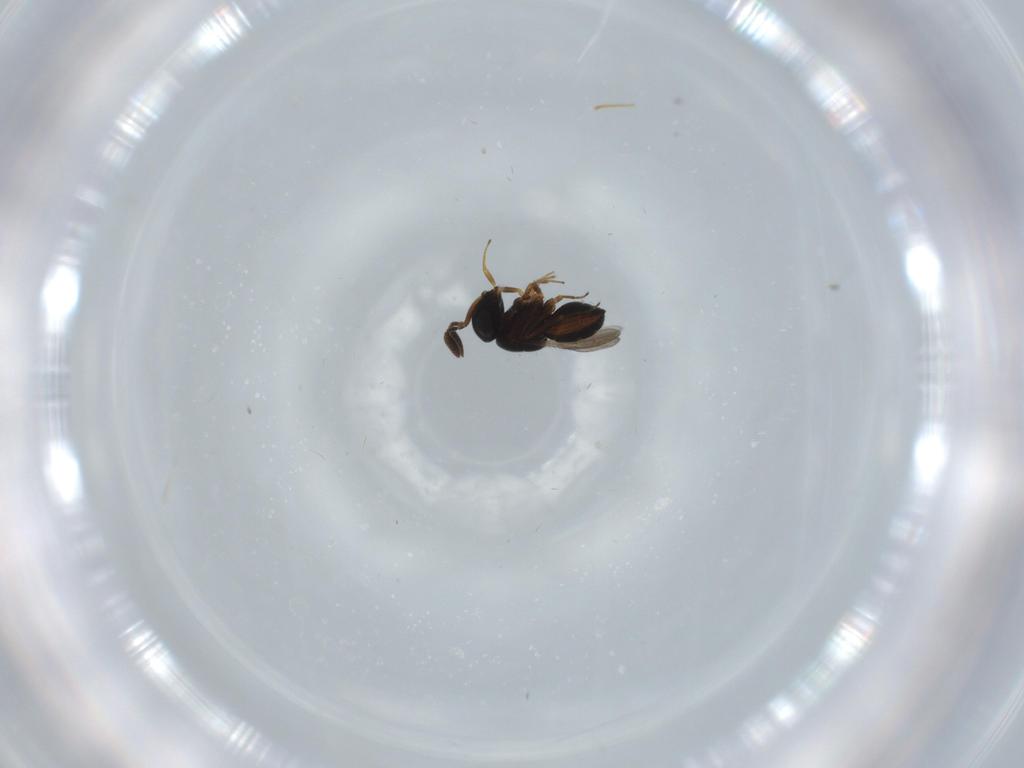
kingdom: Animalia
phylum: Arthropoda
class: Insecta
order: Coleoptera
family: Curculionidae
